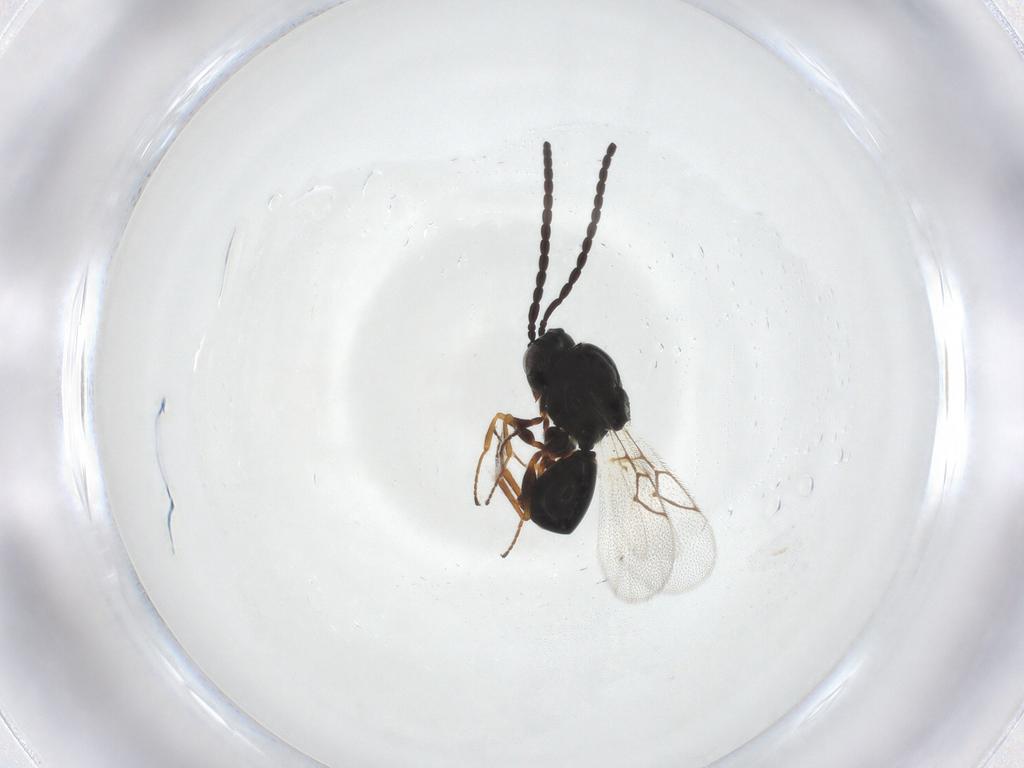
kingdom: Animalia
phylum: Arthropoda
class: Insecta
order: Hymenoptera
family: Figitidae
